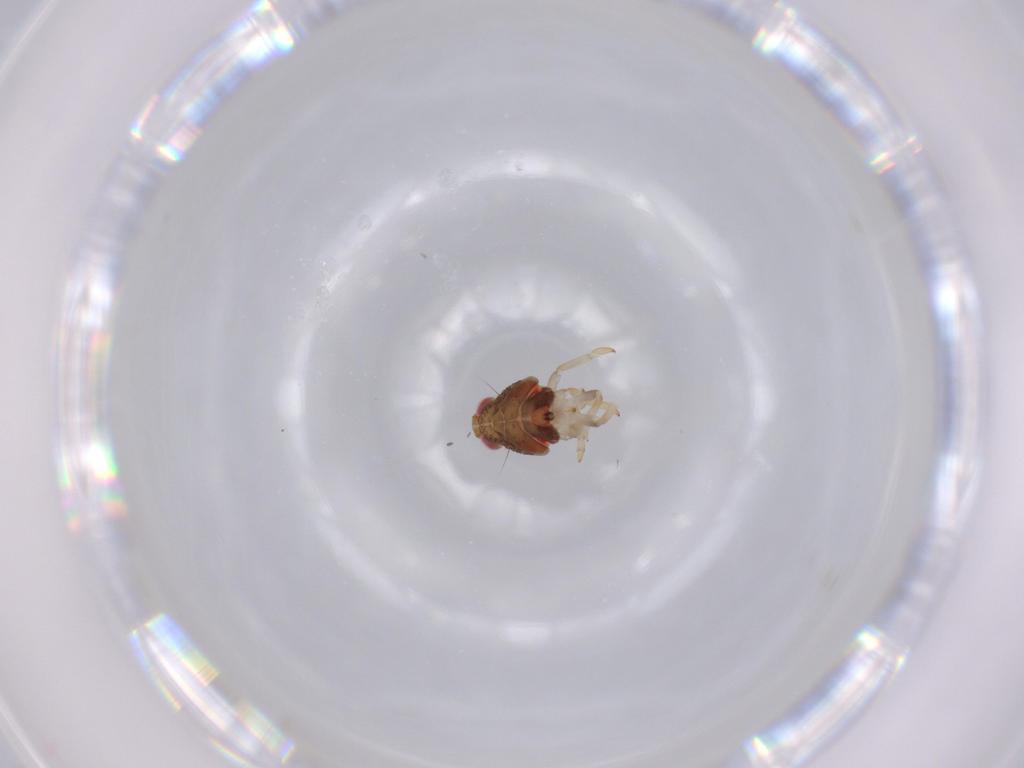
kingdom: Animalia
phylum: Arthropoda
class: Insecta
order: Hemiptera
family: Issidae
